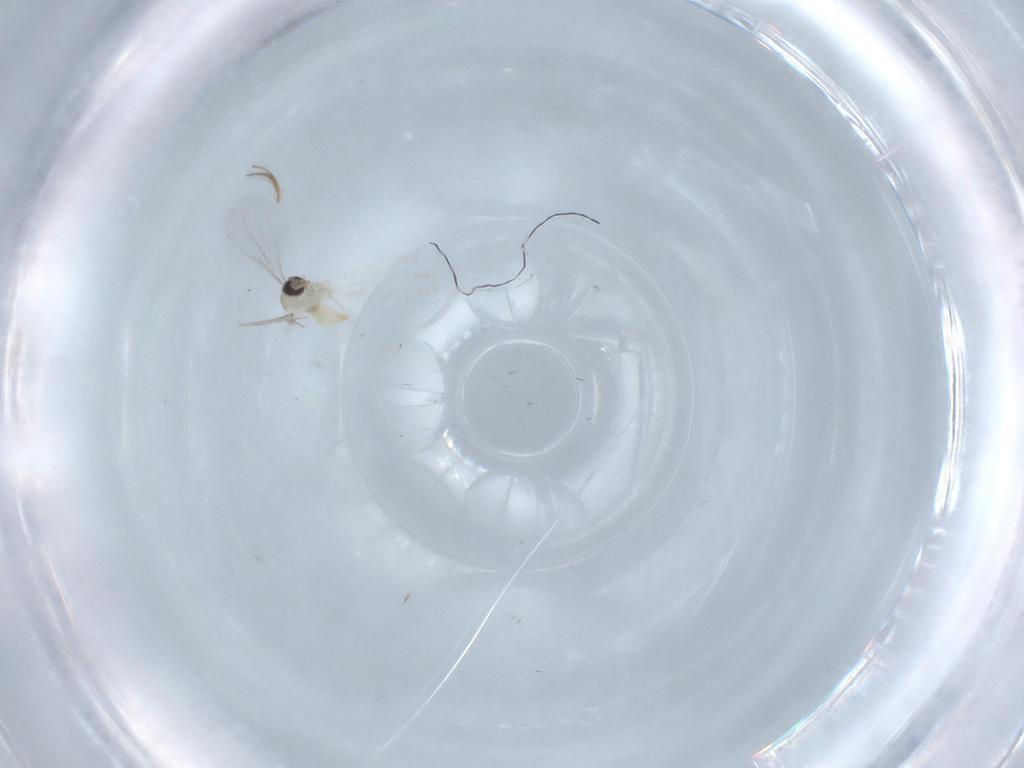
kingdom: Animalia
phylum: Arthropoda
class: Insecta
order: Diptera
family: Cecidomyiidae
